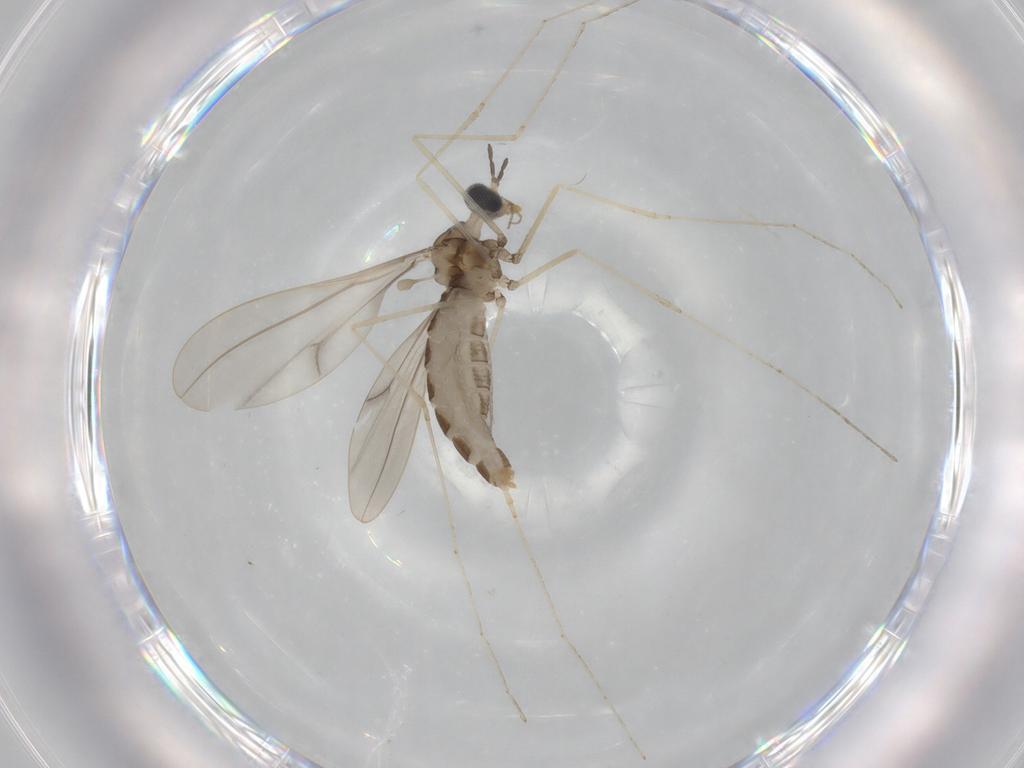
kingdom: Animalia
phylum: Arthropoda
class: Insecta
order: Diptera
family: Cecidomyiidae
